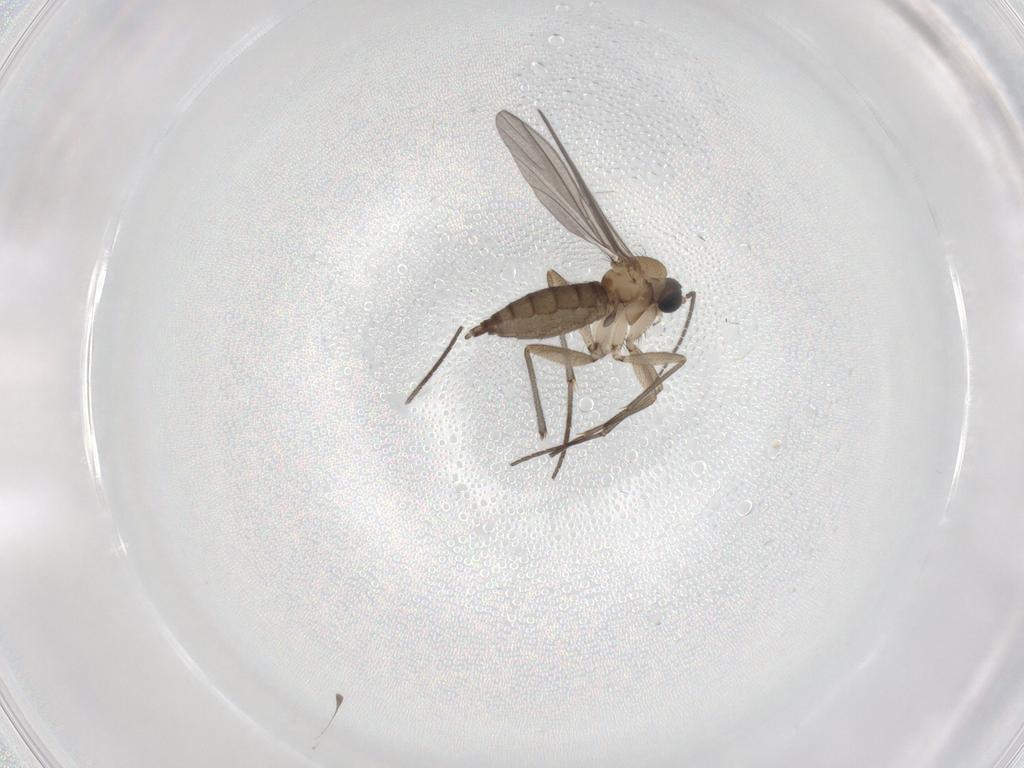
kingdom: Animalia
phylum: Arthropoda
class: Insecta
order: Diptera
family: Sciaridae
